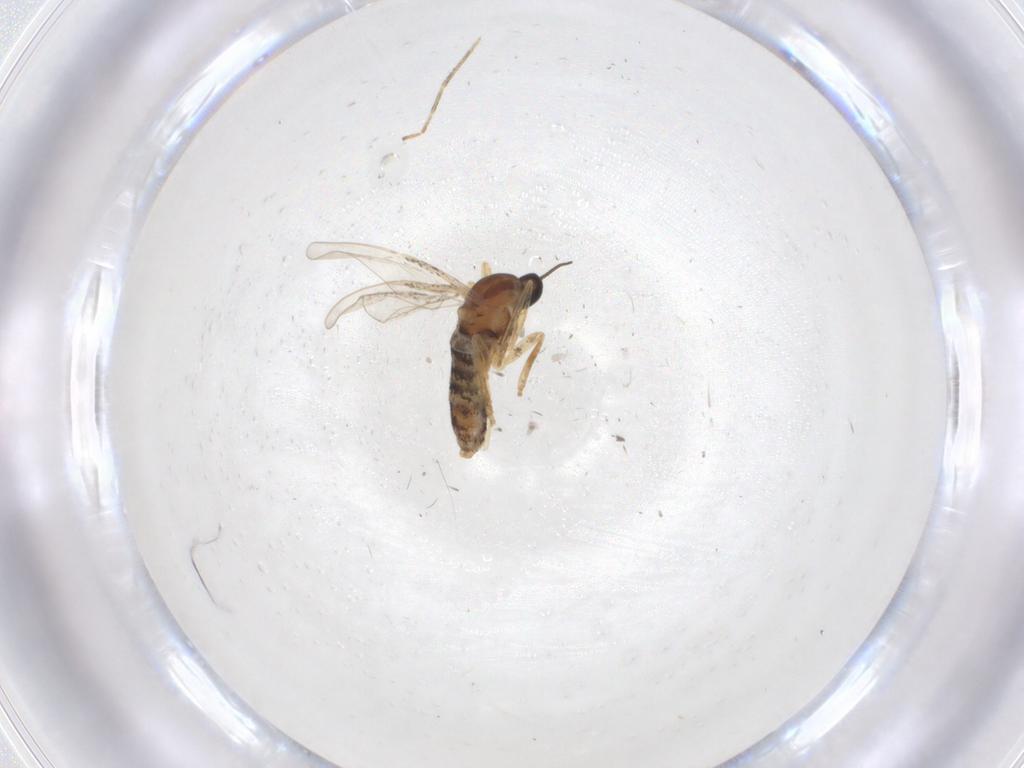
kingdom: Animalia
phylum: Arthropoda
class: Insecta
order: Diptera
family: Cecidomyiidae
